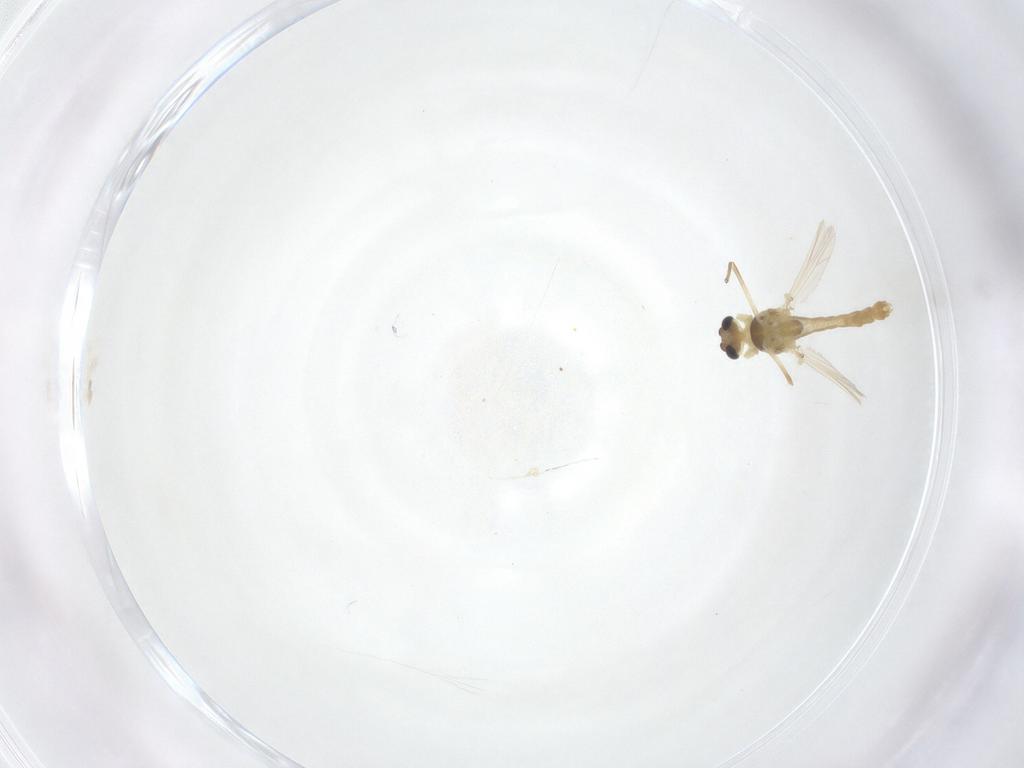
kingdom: Animalia
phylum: Arthropoda
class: Insecta
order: Diptera
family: Chironomidae
